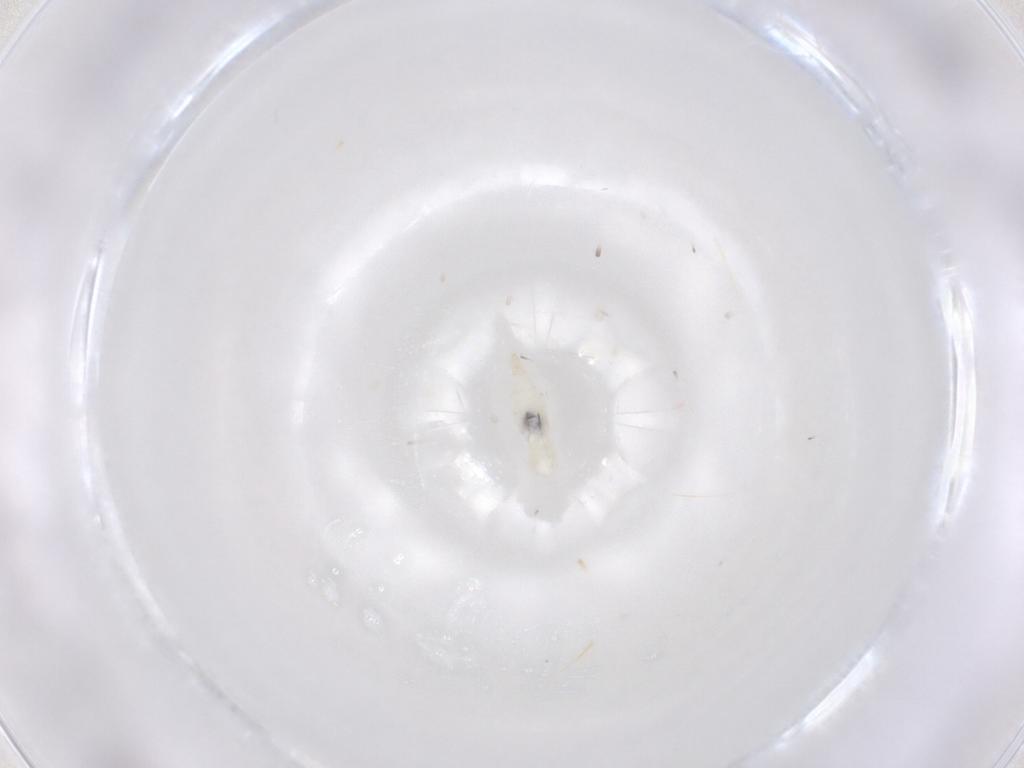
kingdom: Animalia
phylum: Arthropoda
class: Insecta
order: Diptera
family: Cecidomyiidae
